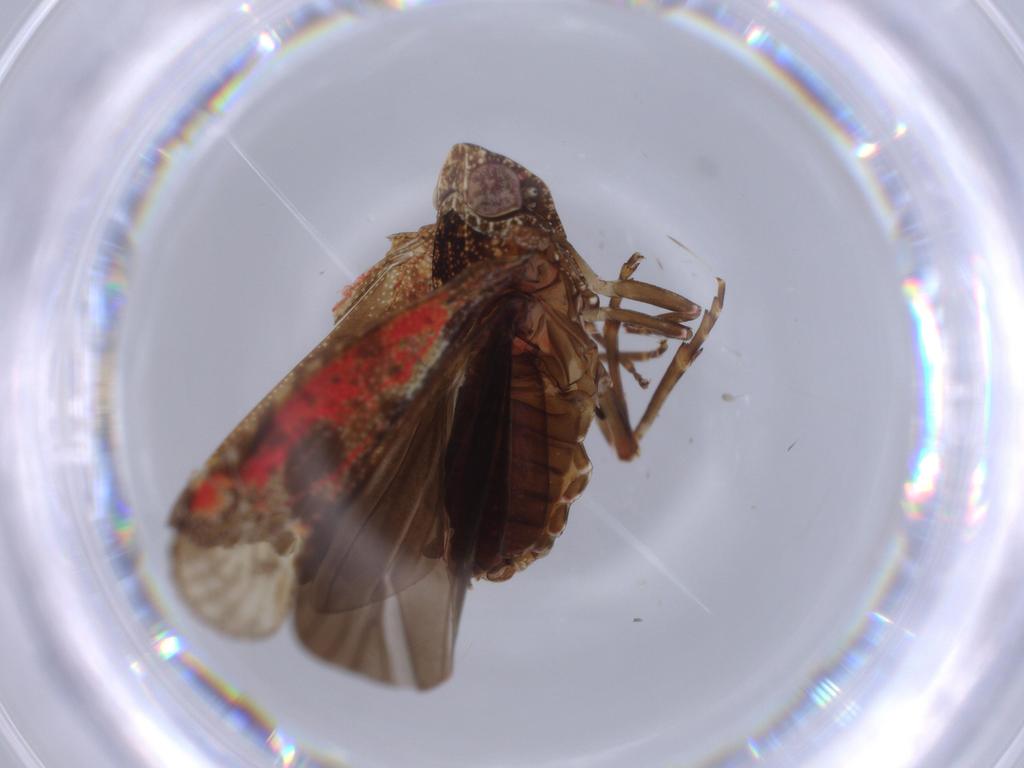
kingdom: Animalia
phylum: Arthropoda
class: Insecta
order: Hemiptera
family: Achilidae
